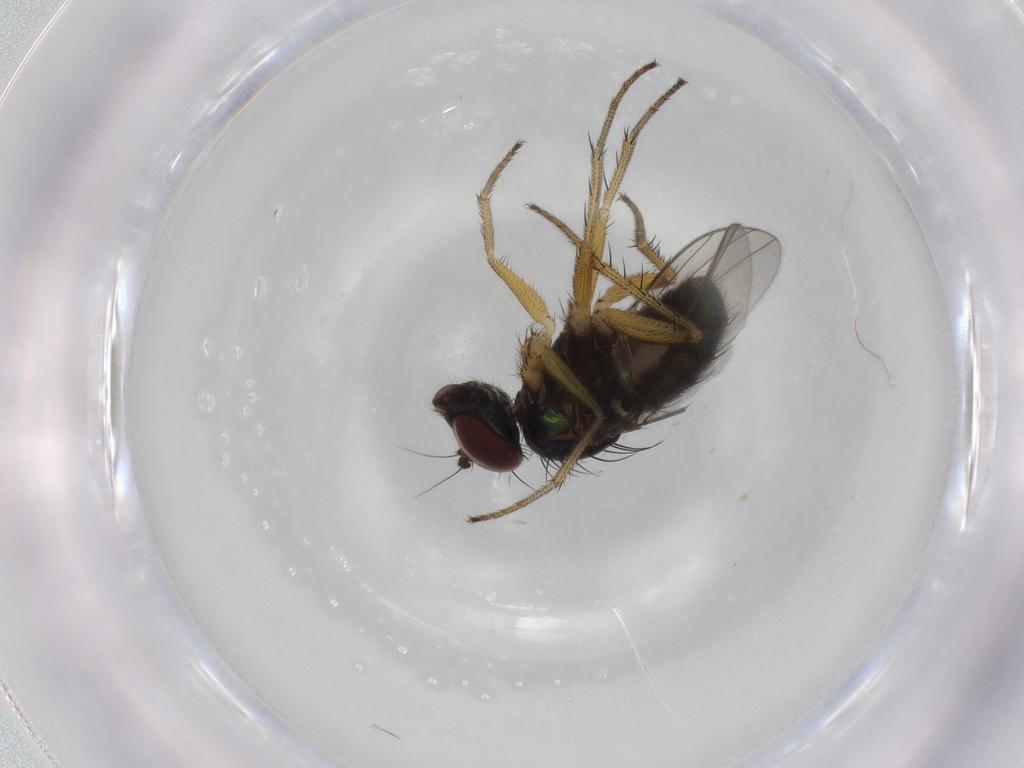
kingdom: Animalia
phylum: Arthropoda
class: Insecta
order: Diptera
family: Dolichopodidae
